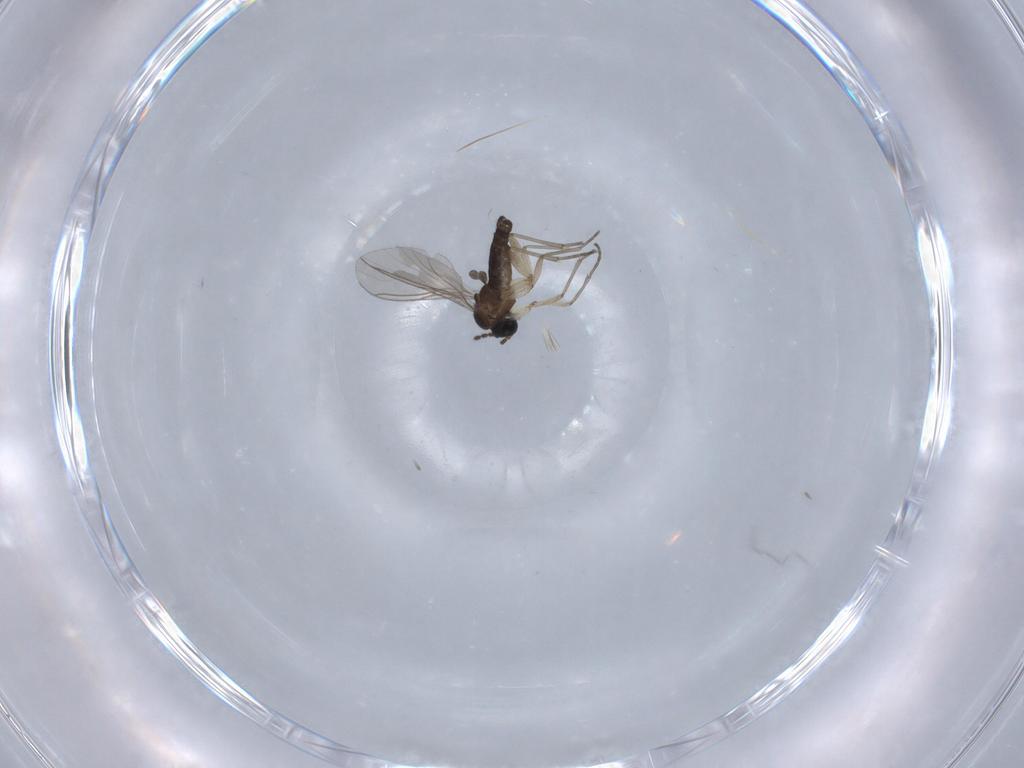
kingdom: Animalia
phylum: Arthropoda
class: Insecta
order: Diptera
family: Sciaridae
